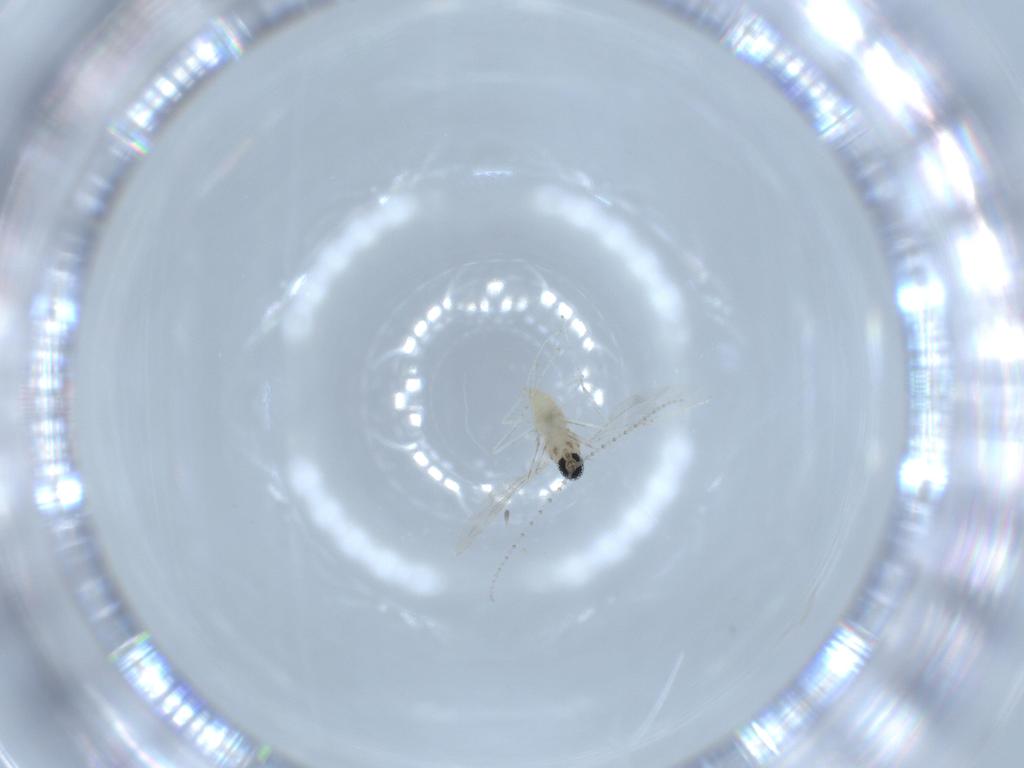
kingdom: Animalia
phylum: Arthropoda
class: Insecta
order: Diptera
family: Cecidomyiidae
